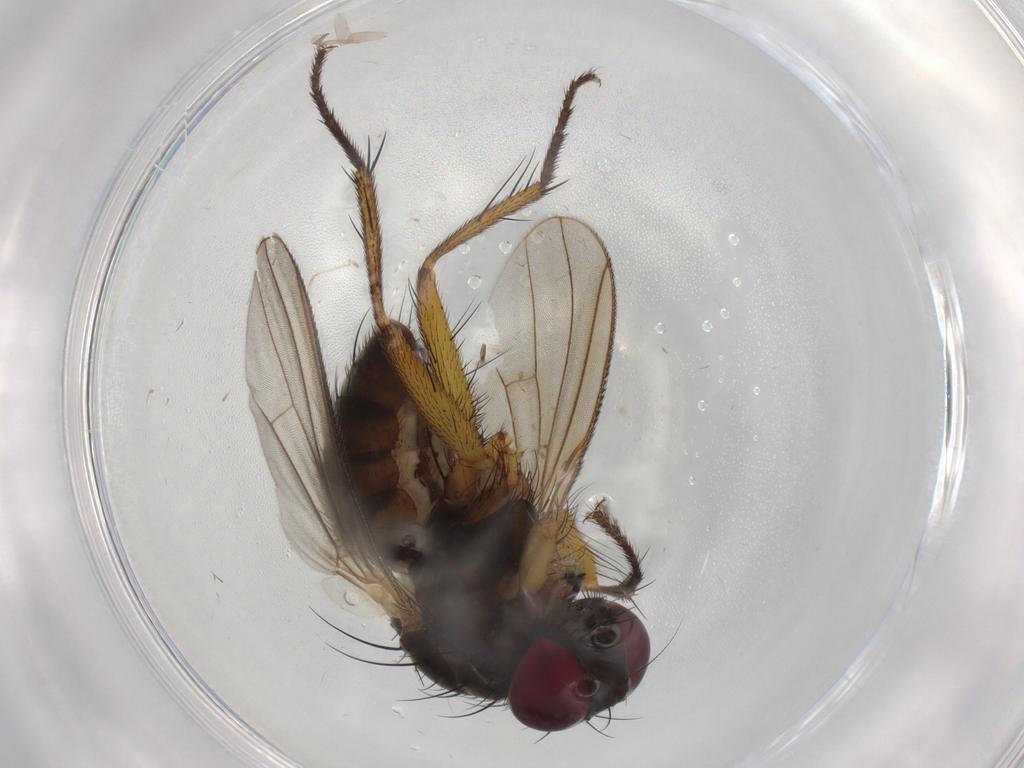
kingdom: Animalia
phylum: Arthropoda
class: Insecta
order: Diptera
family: Muscidae
